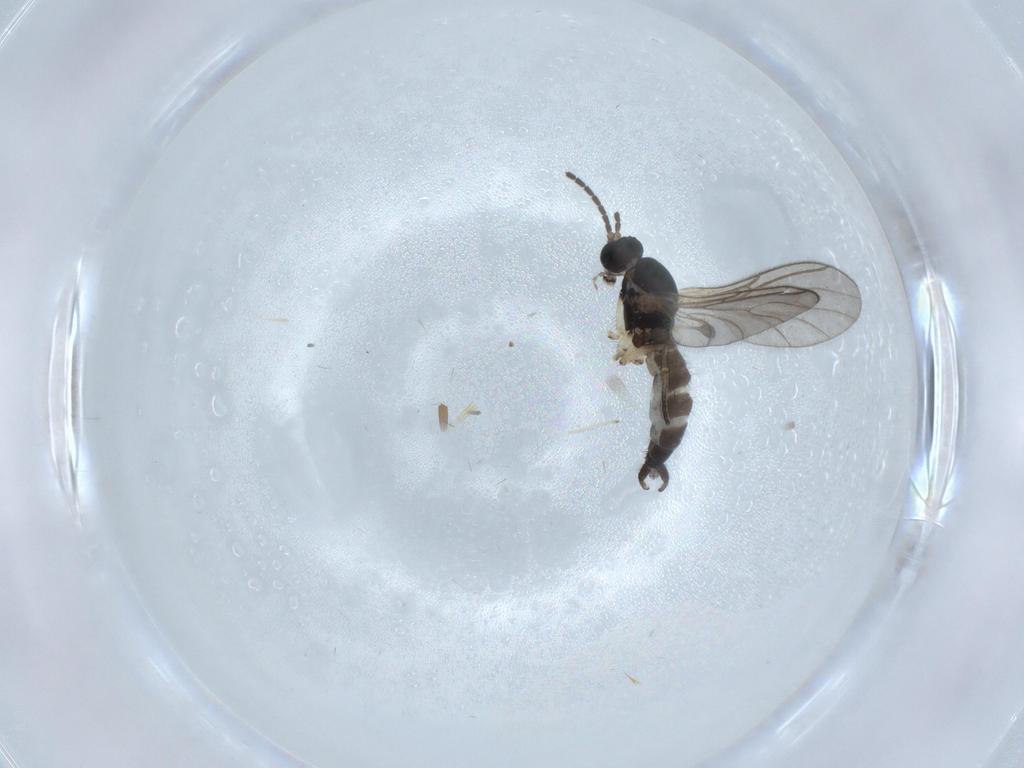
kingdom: Animalia
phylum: Arthropoda
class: Insecta
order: Diptera
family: Sciaridae
